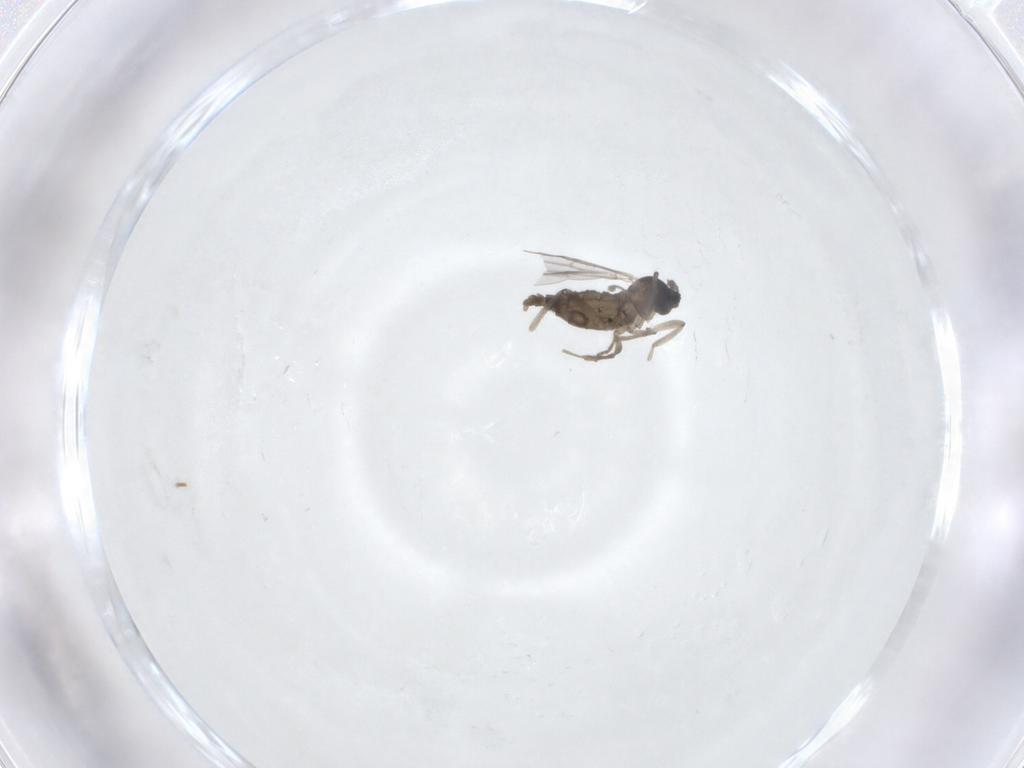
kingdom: Animalia
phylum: Arthropoda
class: Insecta
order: Diptera
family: Cecidomyiidae
